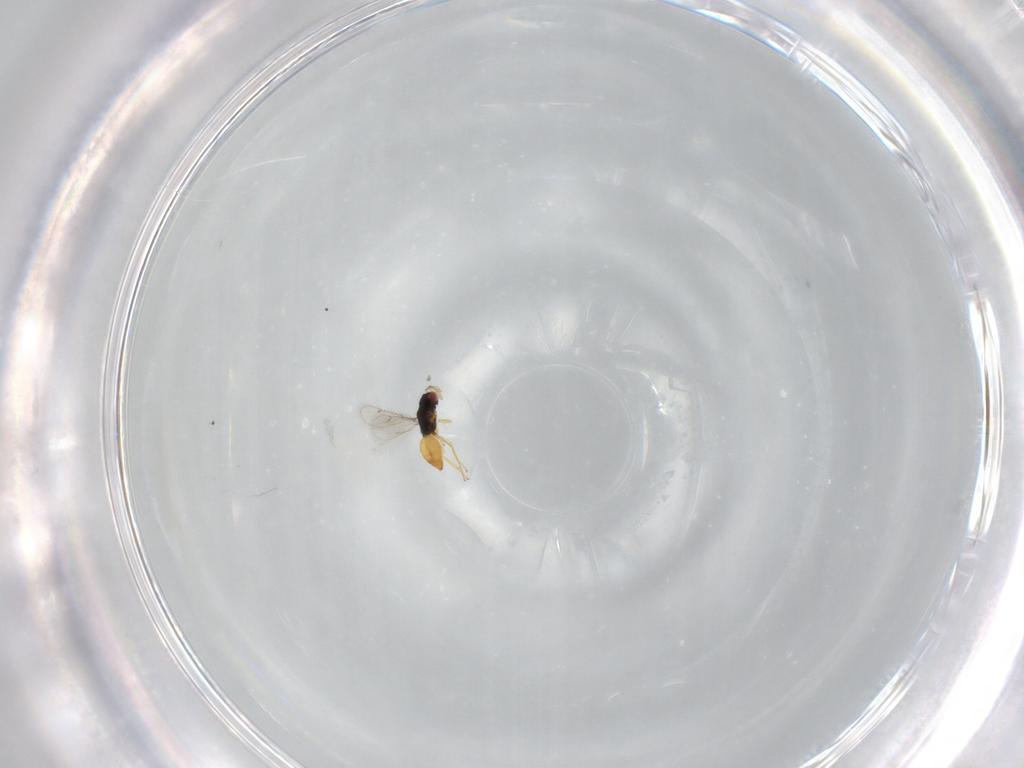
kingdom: Animalia
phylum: Arthropoda
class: Insecta
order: Hymenoptera
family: Eulophidae
